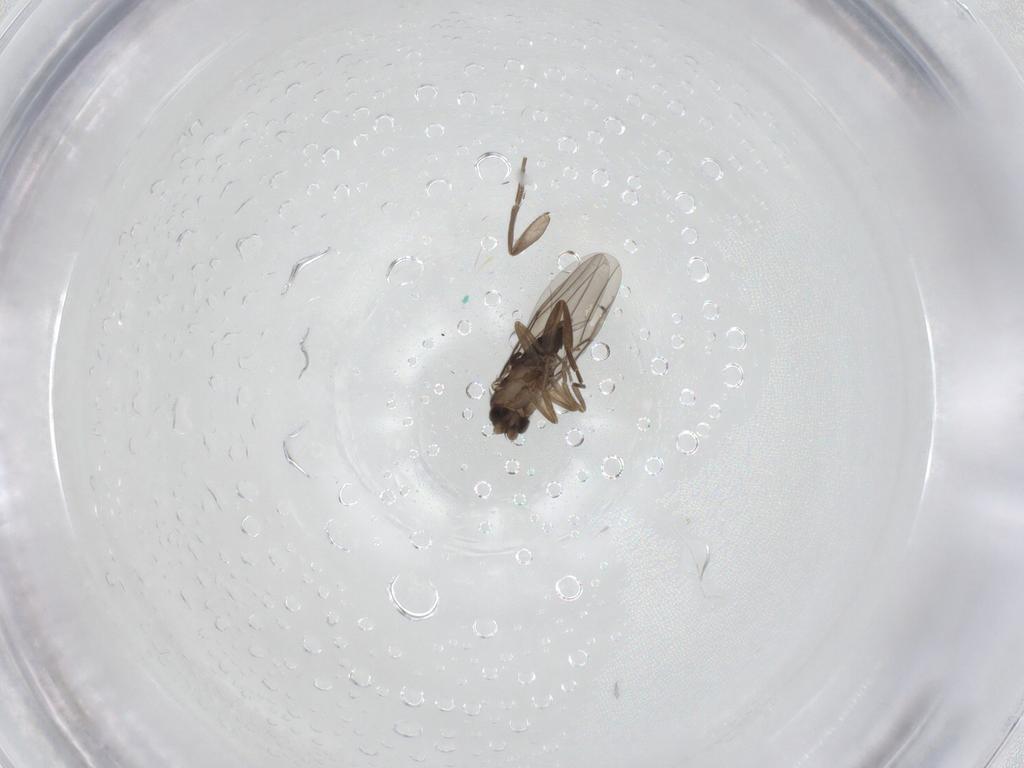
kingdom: Animalia
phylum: Arthropoda
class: Insecta
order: Diptera
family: Phoridae
